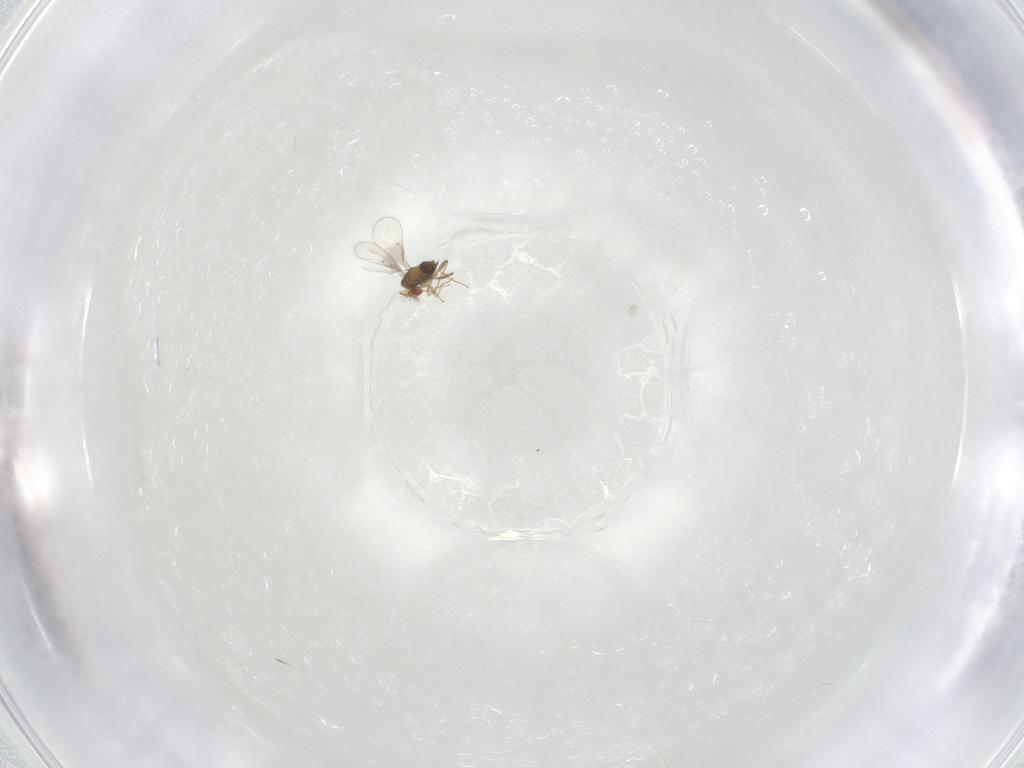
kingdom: Animalia
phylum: Arthropoda
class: Insecta
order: Hymenoptera
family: Trichogrammatidae
